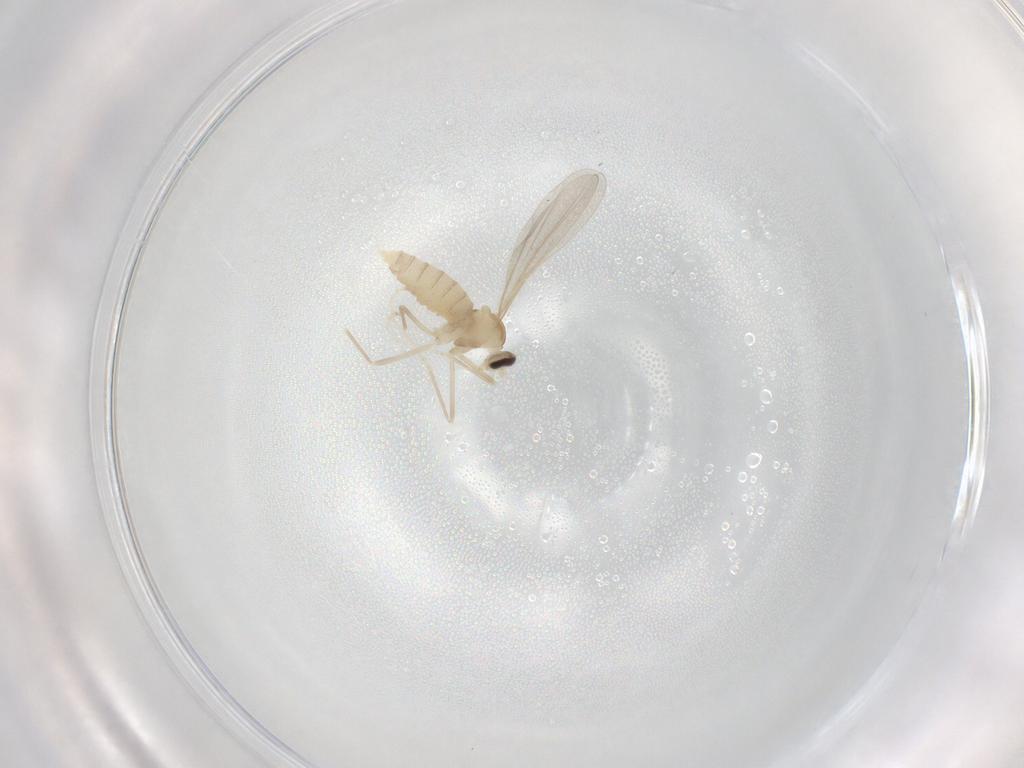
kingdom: Animalia
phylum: Arthropoda
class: Insecta
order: Diptera
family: Cecidomyiidae
